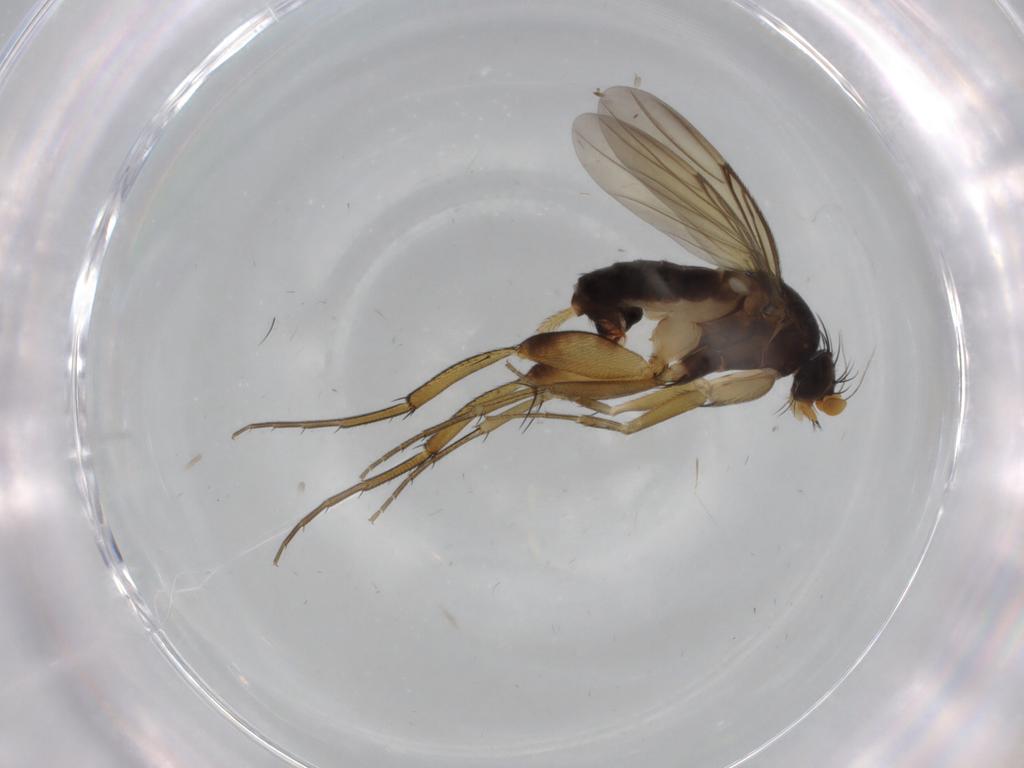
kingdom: Animalia
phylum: Arthropoda
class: Insecta
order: Diptera
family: Phoridae
